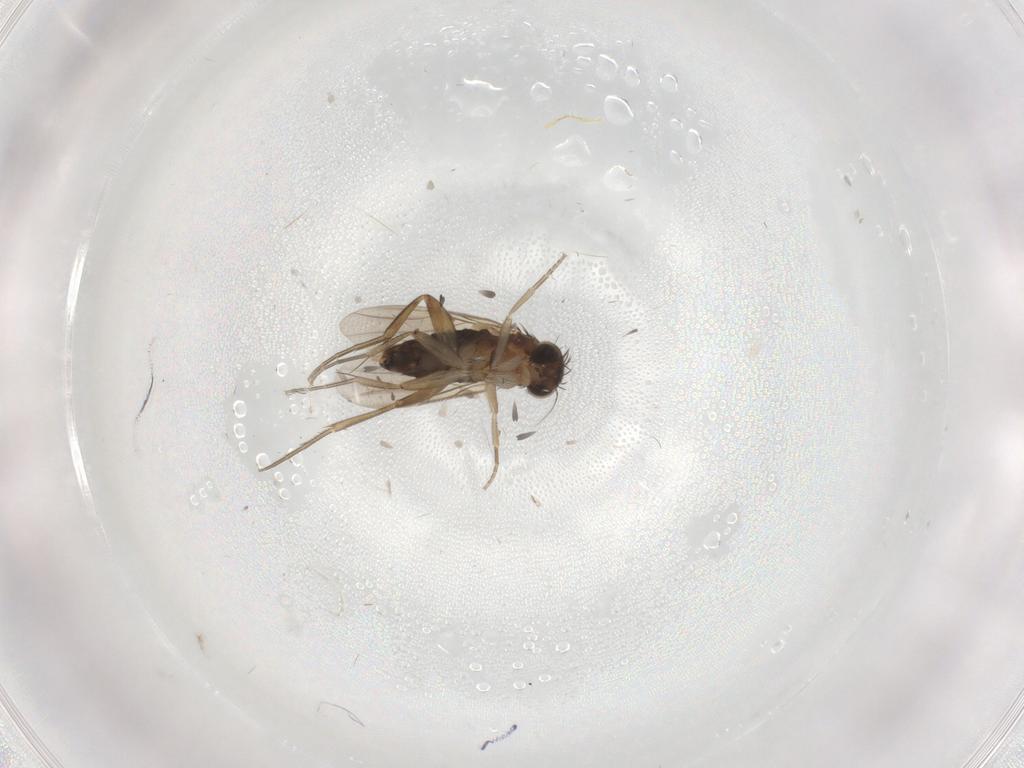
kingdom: Animalia
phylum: Arthropoda
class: Insecta
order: Diptera
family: Phoridae
